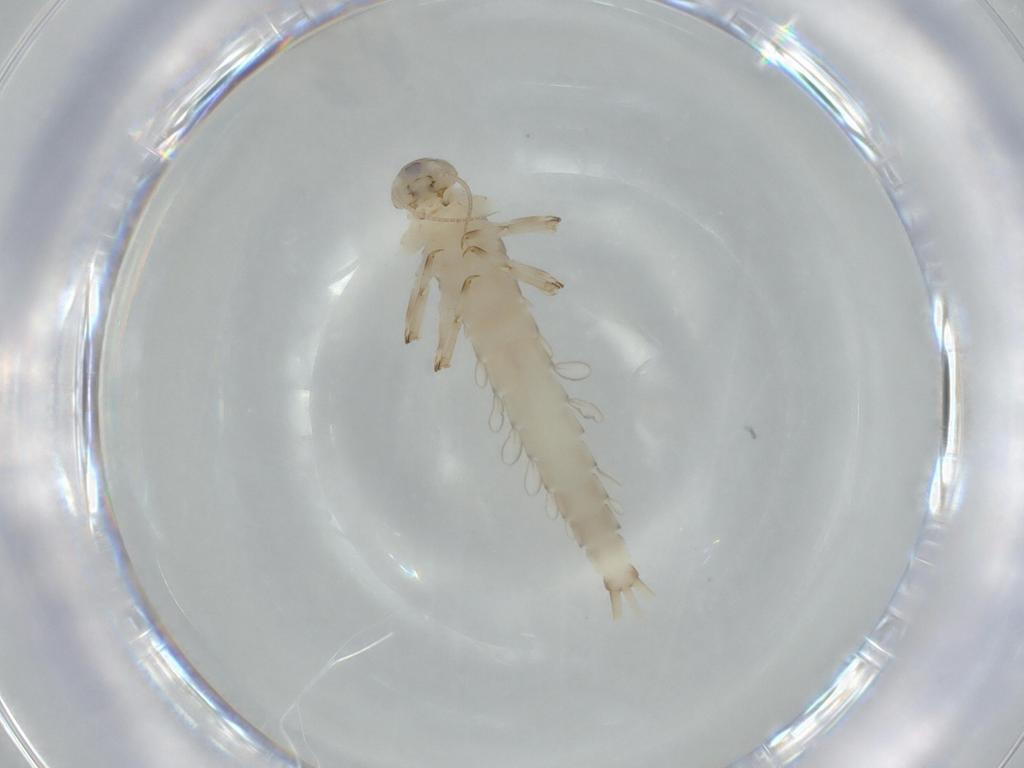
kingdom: Animalia
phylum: Arthropoda
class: Insecta
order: Ephemeroptera
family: Baetidae
